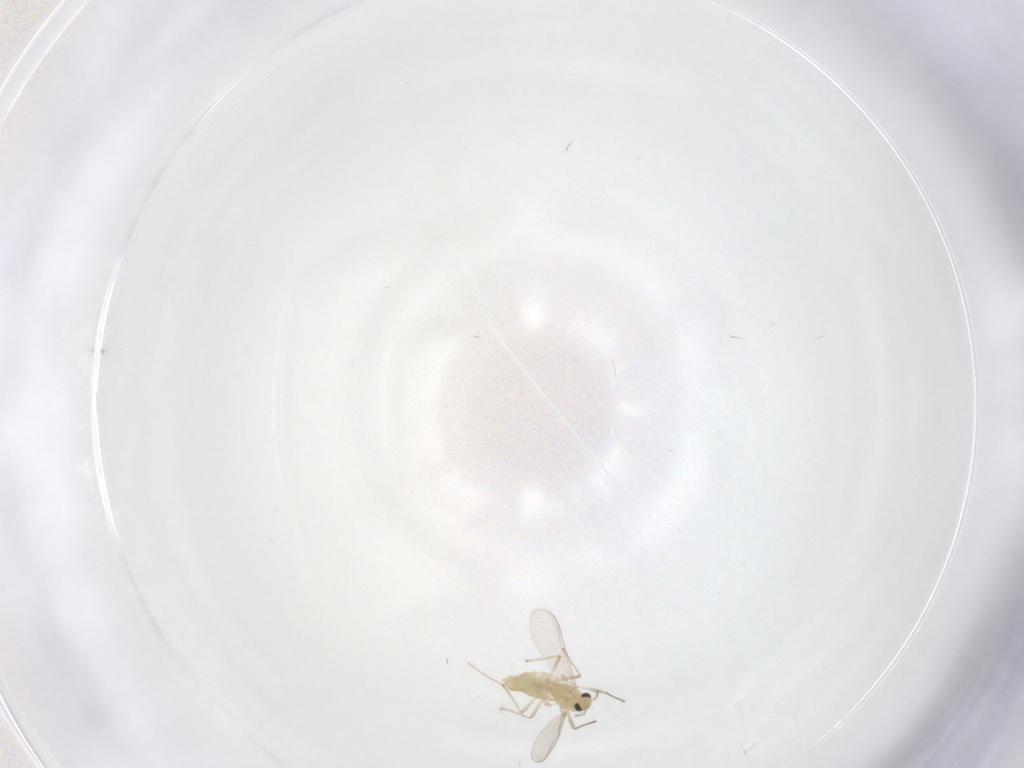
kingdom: Animalia
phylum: Arthropoda
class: Insecta
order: Diptera
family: Chironomidae
